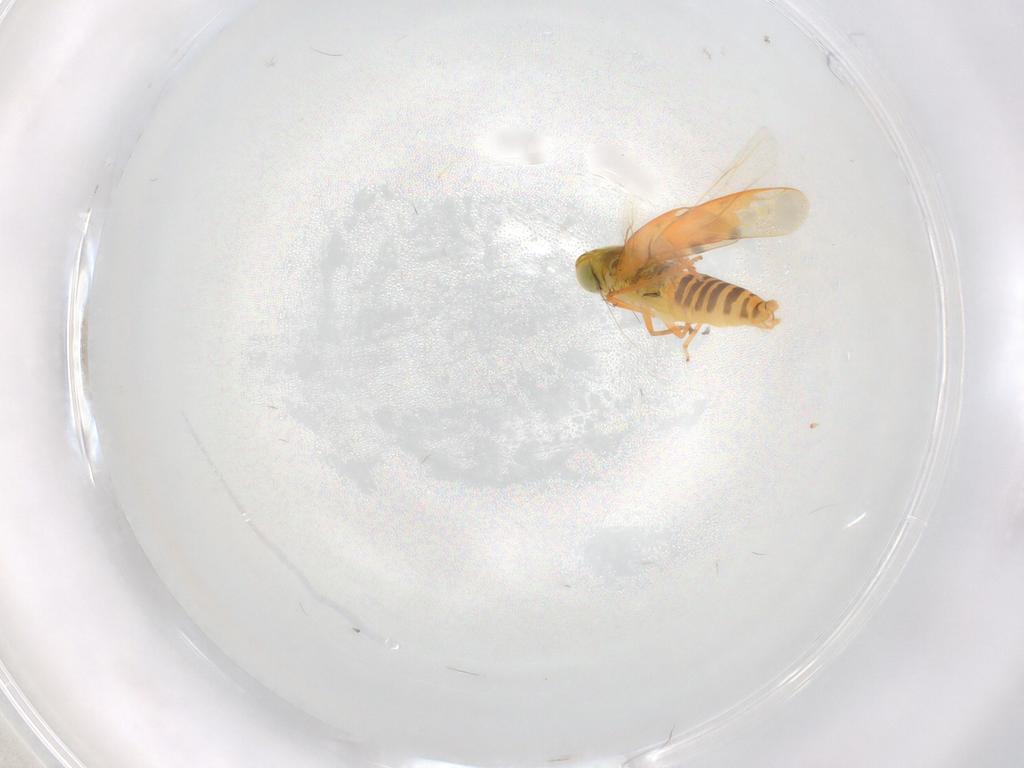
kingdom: Animalia
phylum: Arthropoda
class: Insecta
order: Hemiptera
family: Cicadellidae
